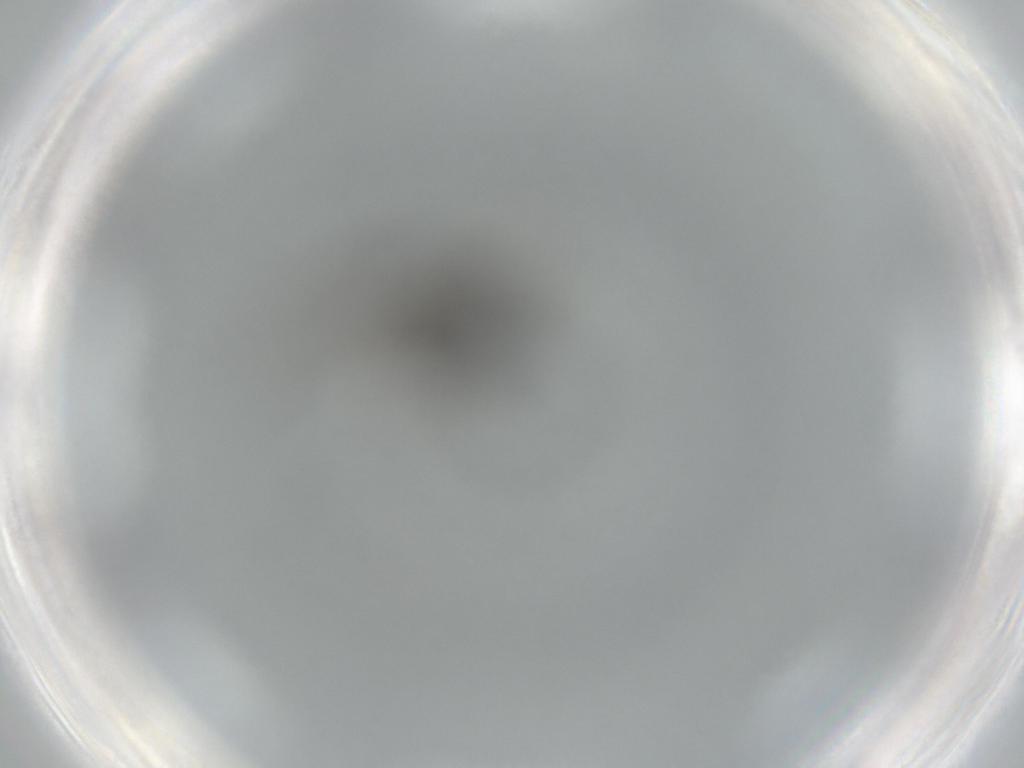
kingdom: Animalia
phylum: Arthropoda
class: Insecta
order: Diptera
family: Sciaridae
